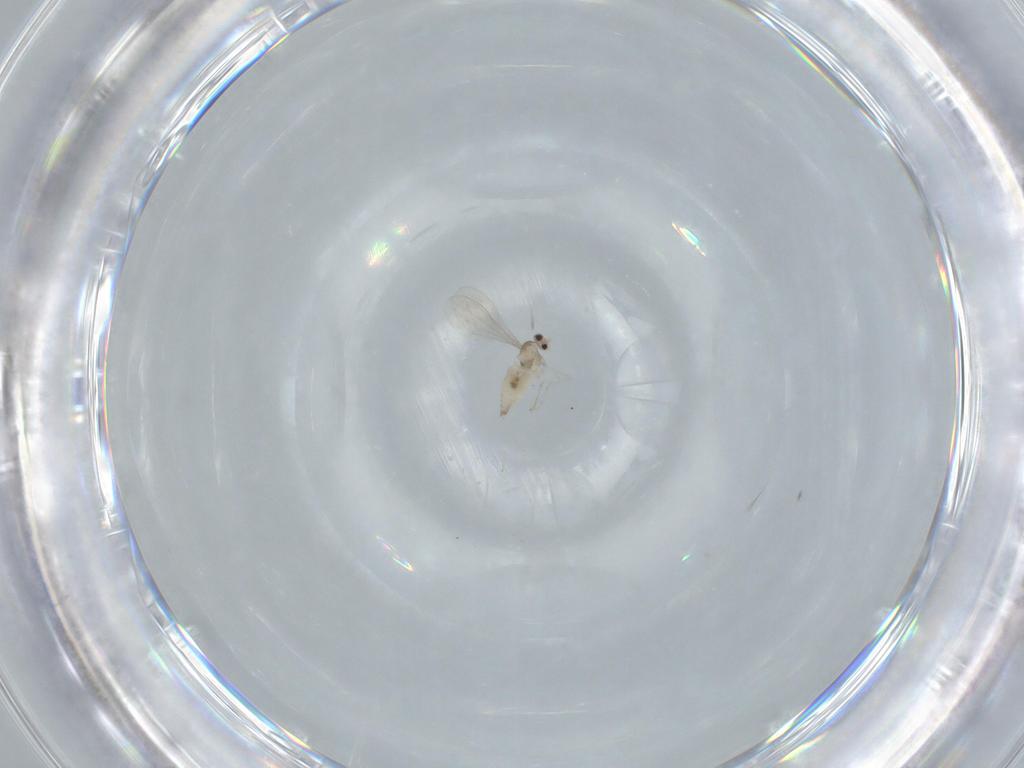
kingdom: Animalia
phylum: Arthropoda
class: Insecta
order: Diptera
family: Cecidomyiidae
